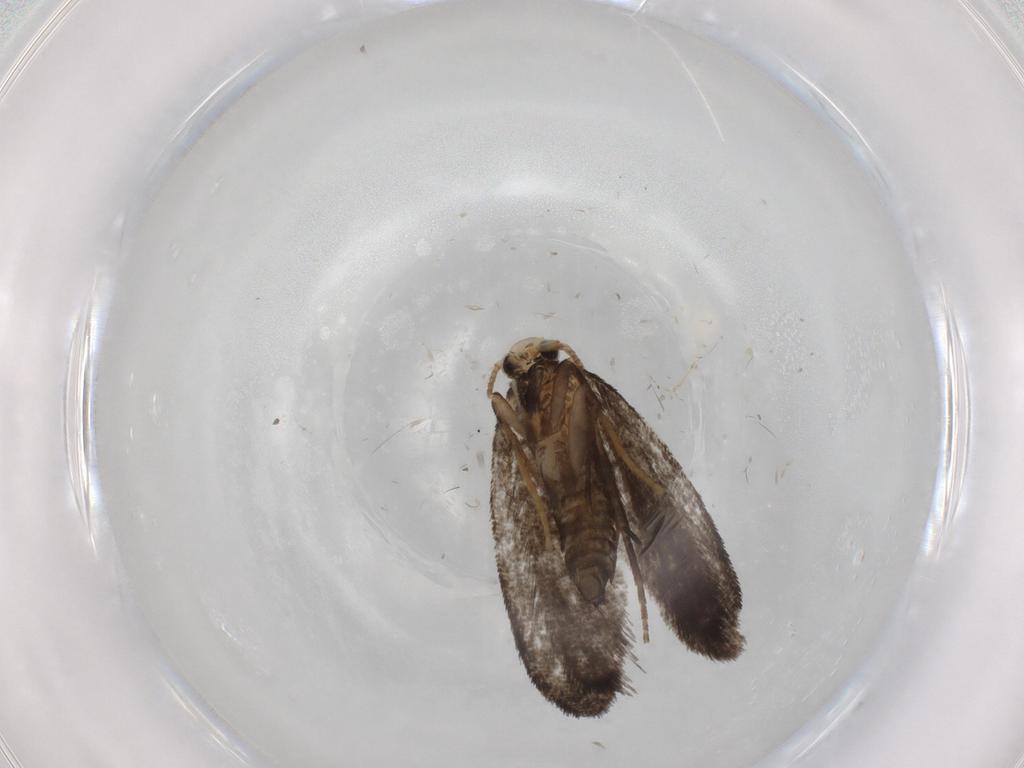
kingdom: Animalia
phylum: Arthropoda
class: Insecta
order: Lepidoptera
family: Psychidae
